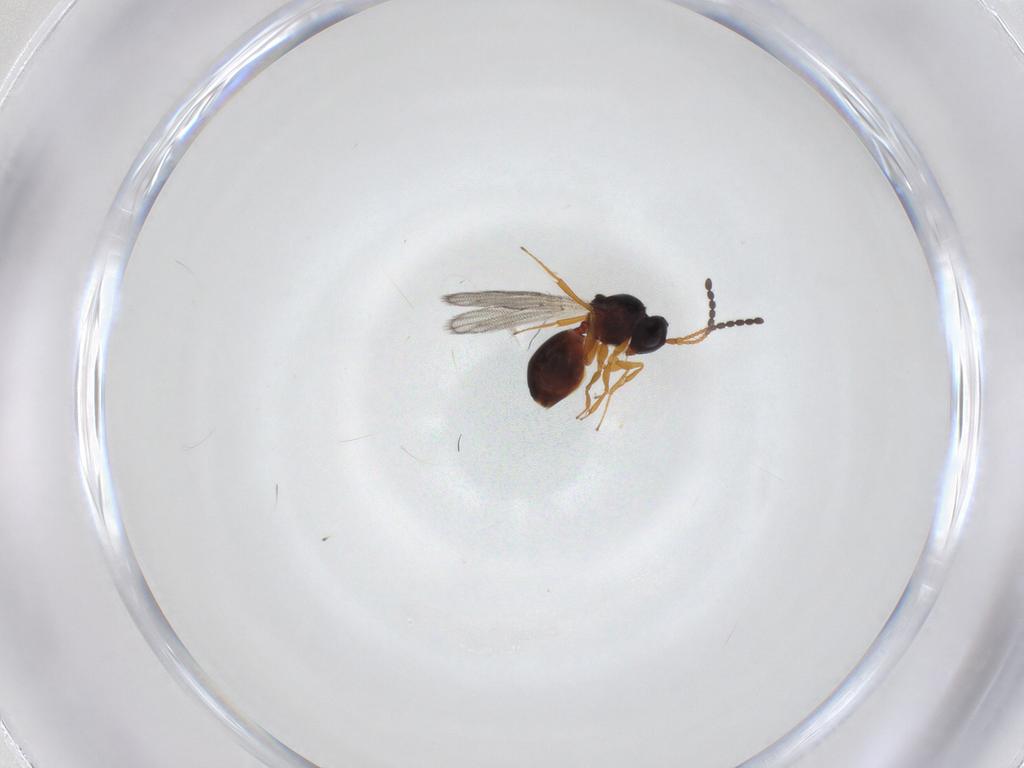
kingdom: Animalia
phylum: Arthropoda
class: Insecta
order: Hymenoptera
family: Figitidae
